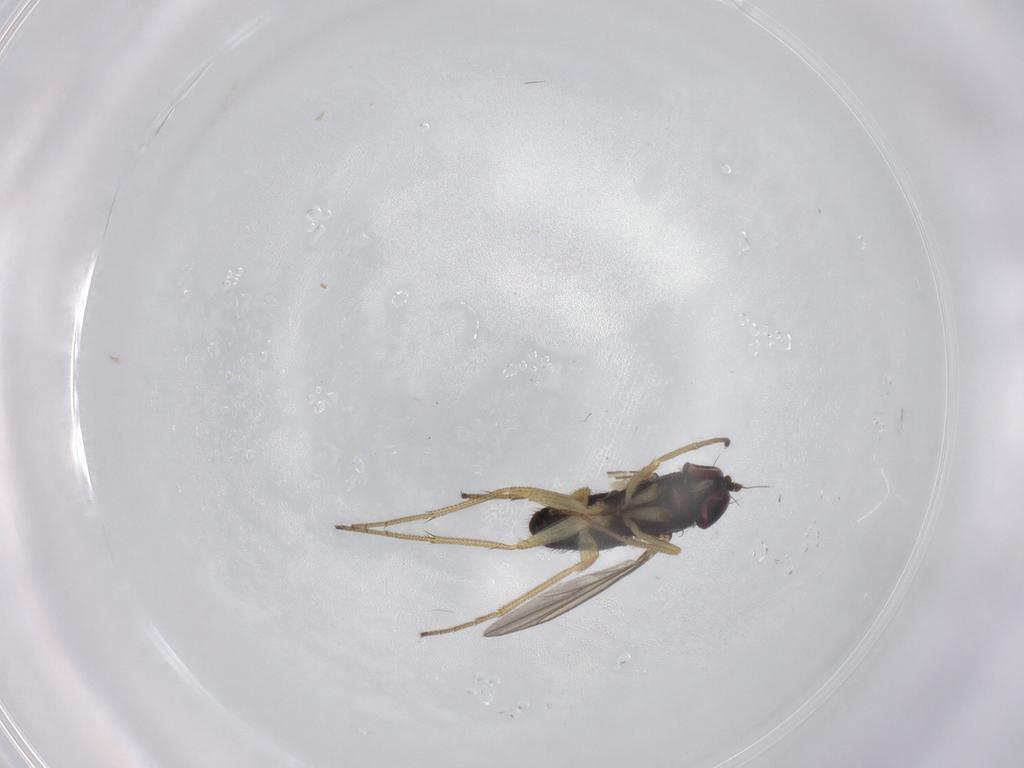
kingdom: Animalia
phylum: Arthropoda
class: Insecta
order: Diptera
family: Dolichopodidae
